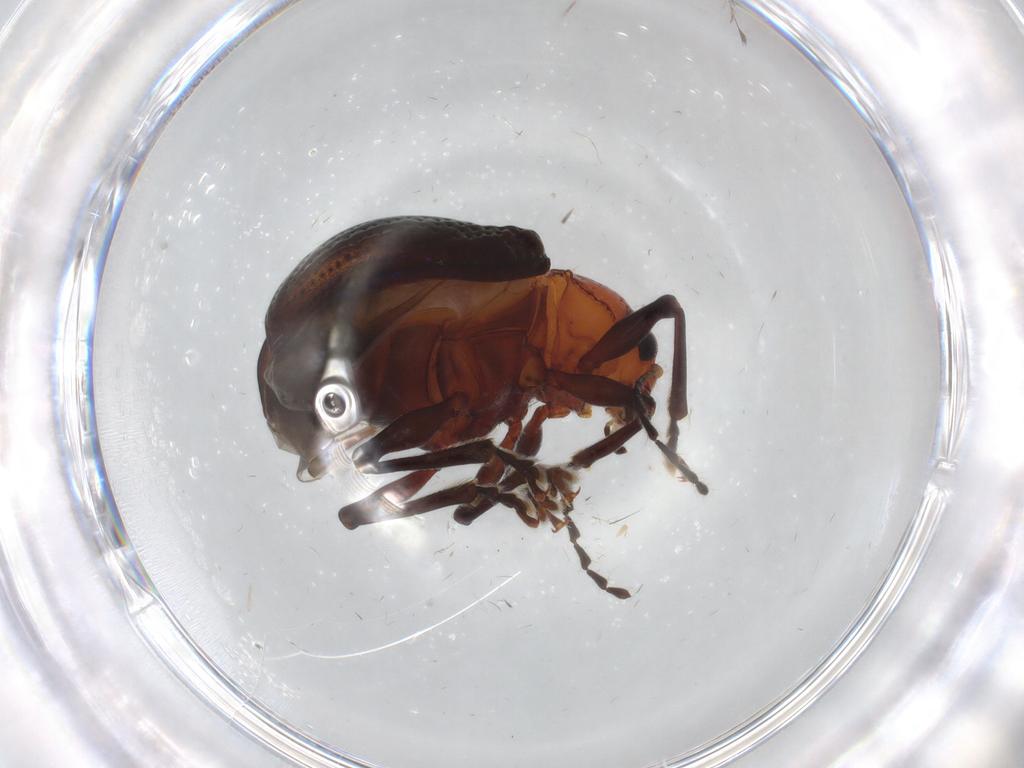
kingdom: Animalia
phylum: Arthropoda
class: Insecta
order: Coleoptera
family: Chrysomelidae
